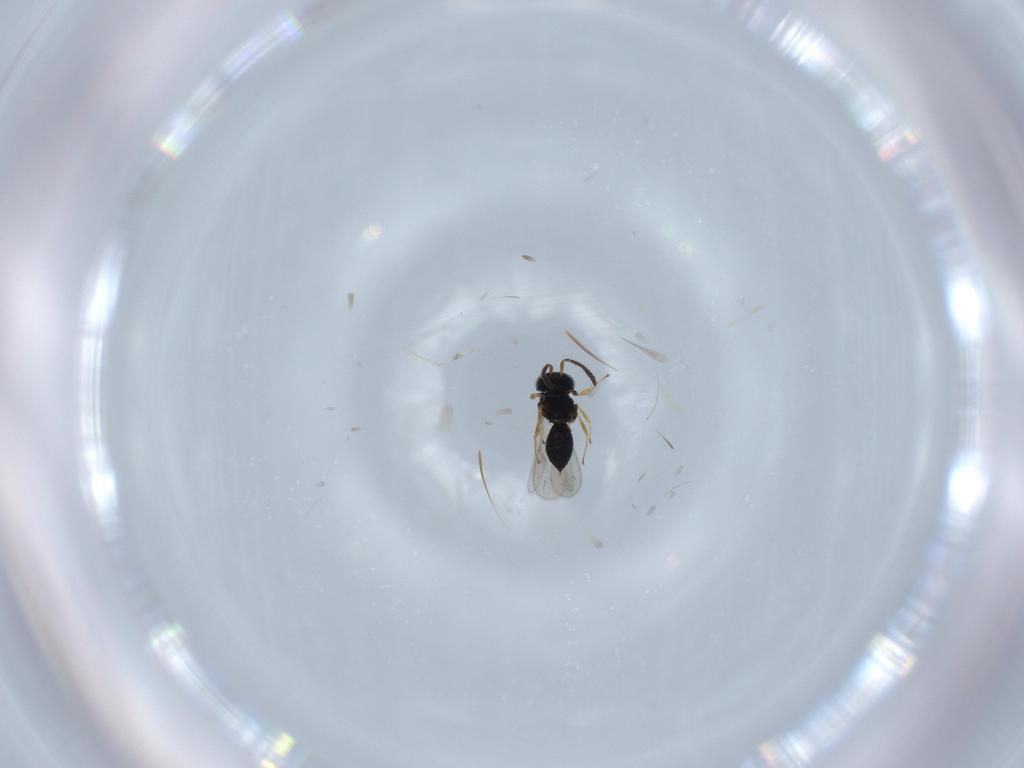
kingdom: Animalia
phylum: Arthropoda
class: Insecta
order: Hymenoptera
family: Scelionidae
